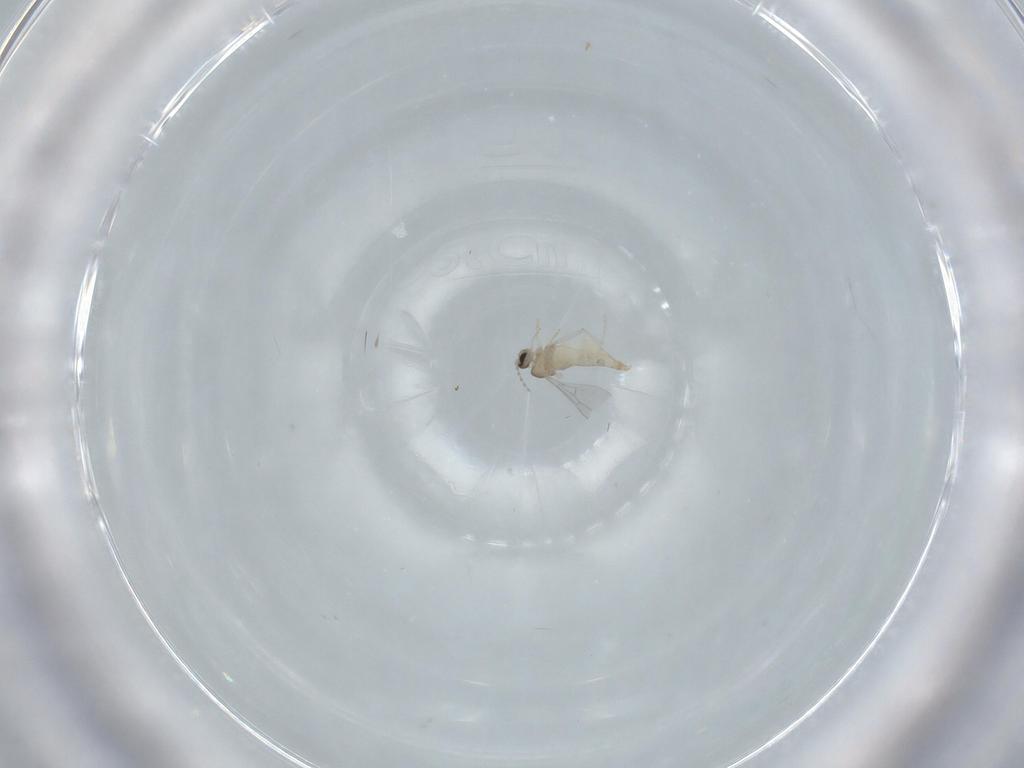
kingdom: Animalia
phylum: Arthropoda
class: Insecta
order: Diptera
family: Cecidomyiidae
